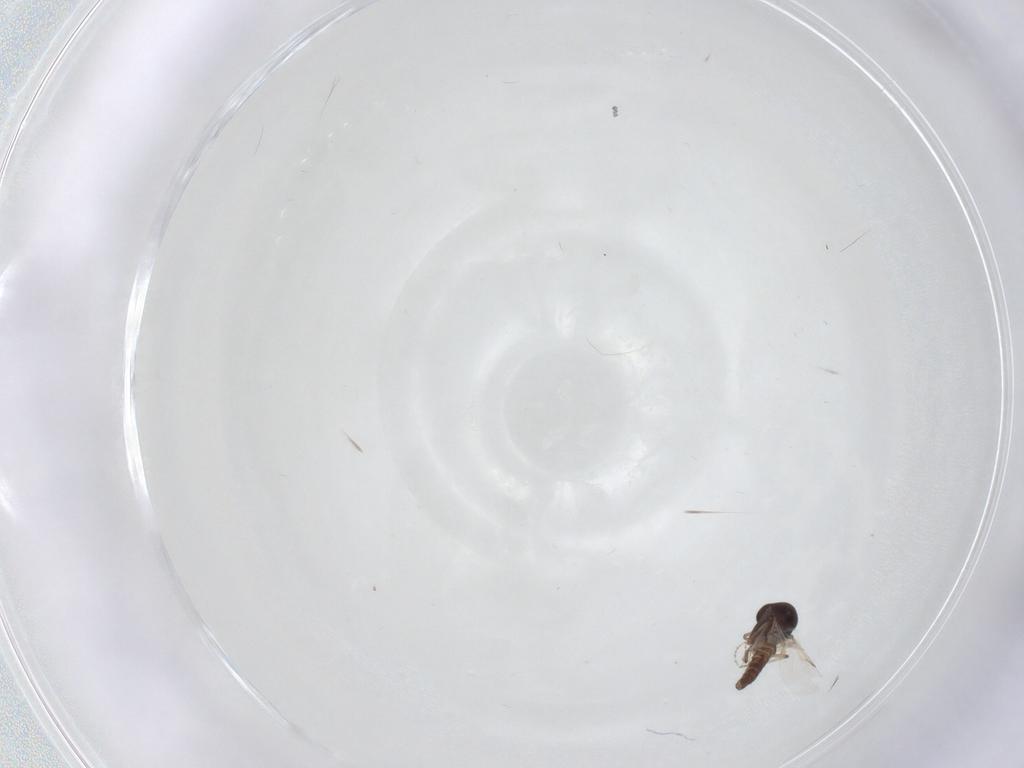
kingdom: Animalia
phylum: Arthropoda
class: Insecta
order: Diptera
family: Ceratopogonidae
